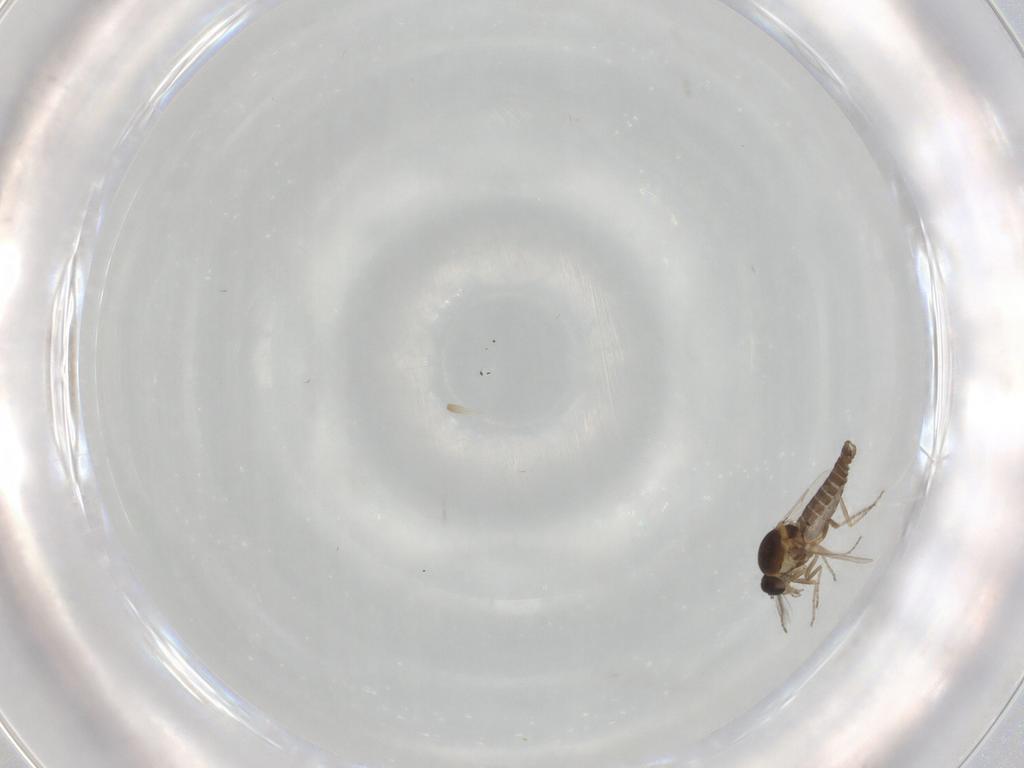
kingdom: Animalia
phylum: Arthropoda
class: Insecta
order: Diptera
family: Ceratopogonidae
